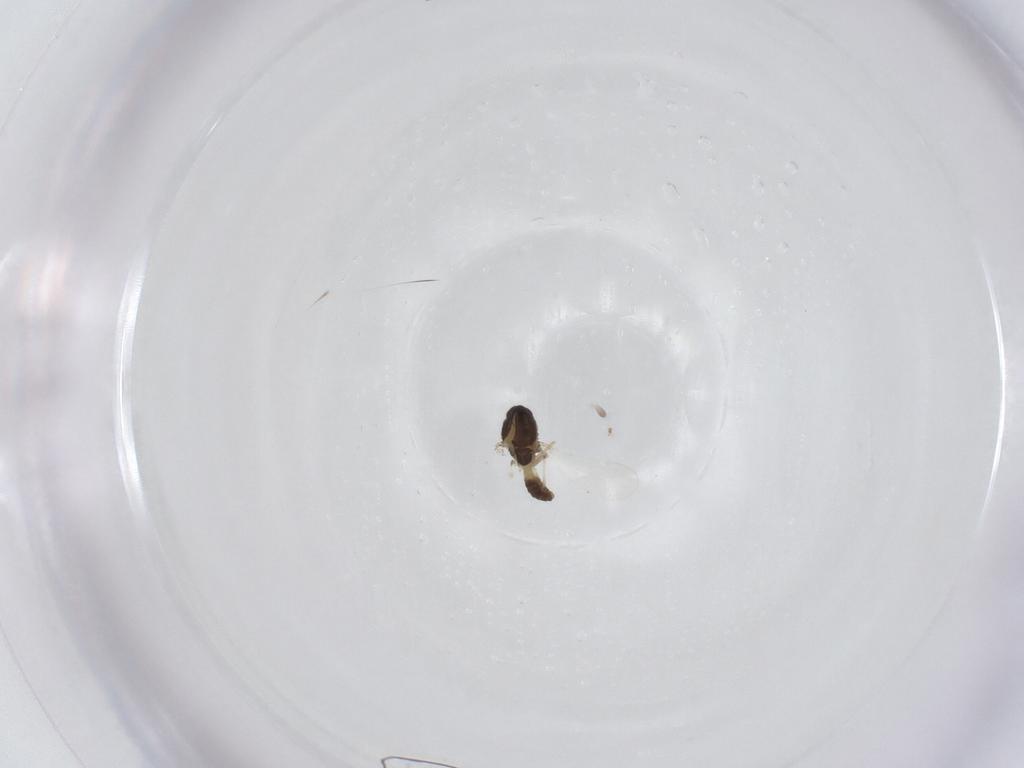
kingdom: Animalia
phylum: Arthropoda
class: Insecta
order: Diptera
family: Chironomidae
